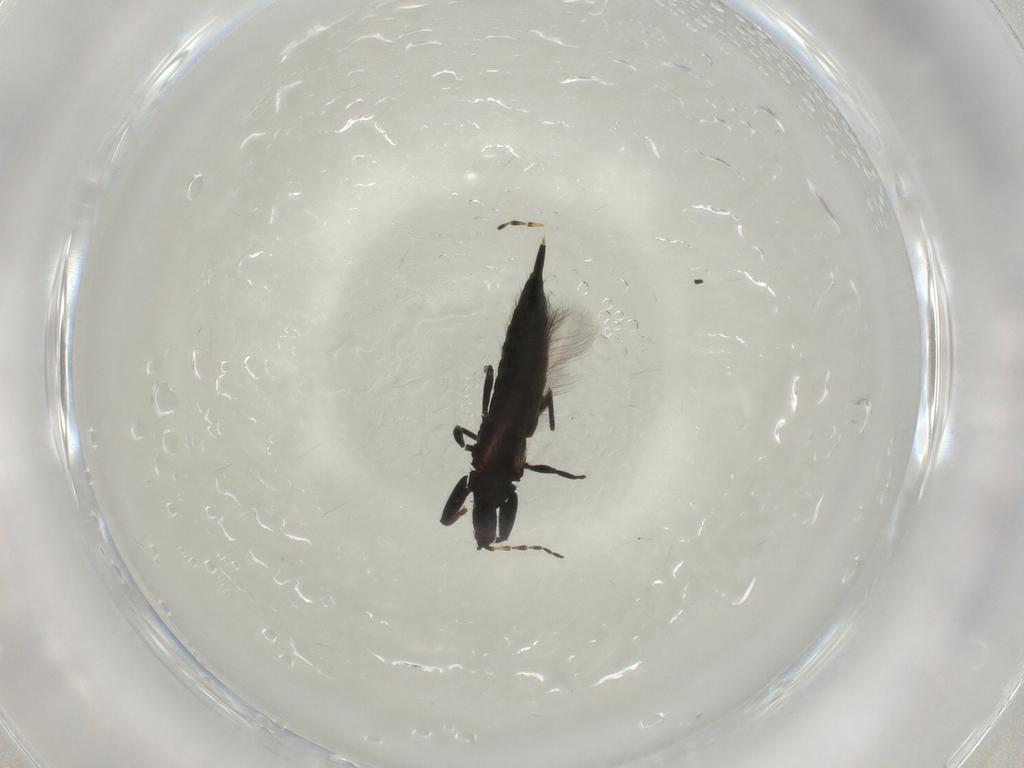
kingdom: Animalia
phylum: Arthropoda
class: Insecta
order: Thysanoptera
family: Phlaeothripidae
